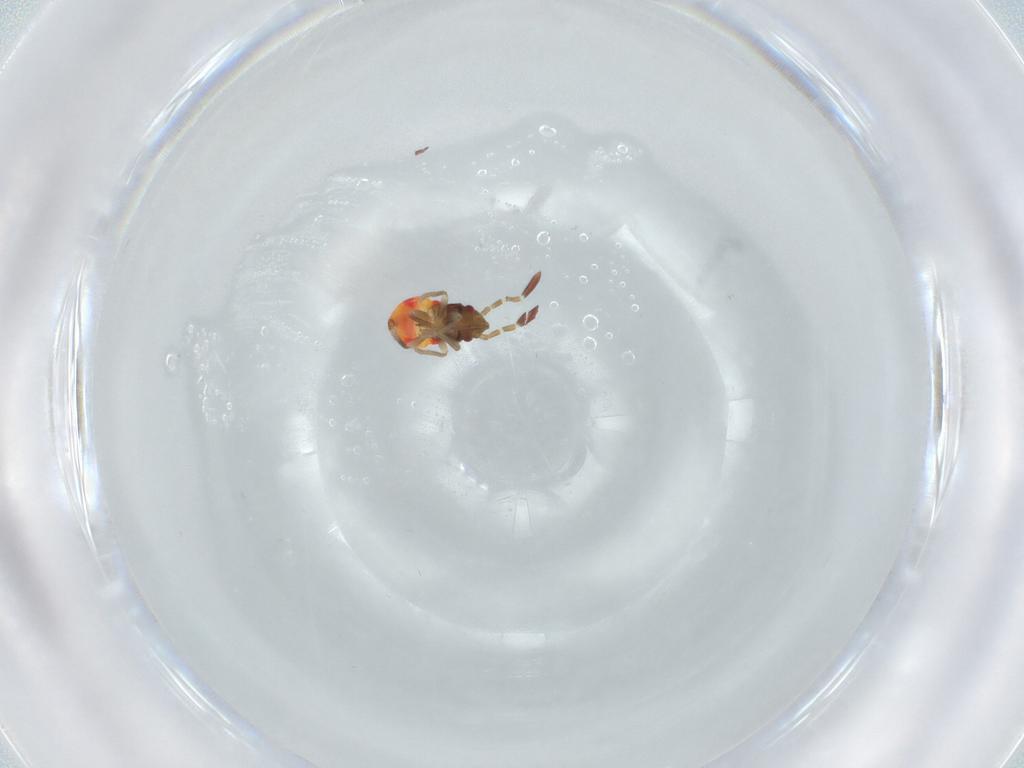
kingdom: Animalia
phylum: Arthropoda
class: Insecta
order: Hemiptera
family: Rhyparochromidae
